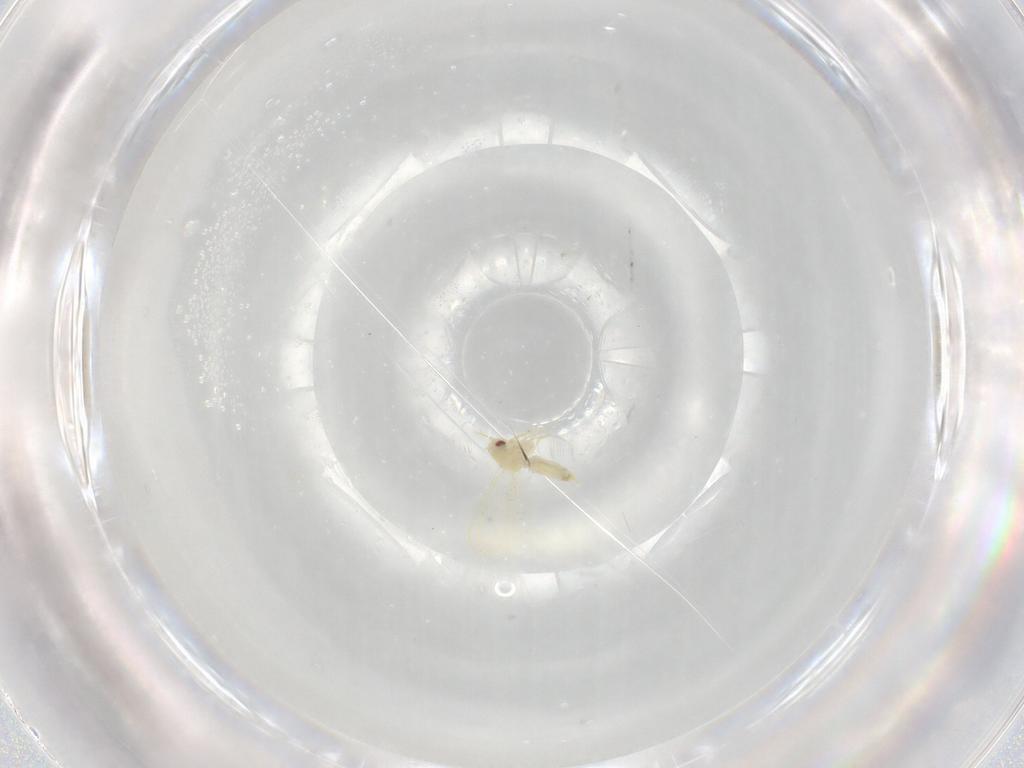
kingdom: Animalia
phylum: Arthropoda
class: Insecta
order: Hemiptera
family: Aleyrodidae
